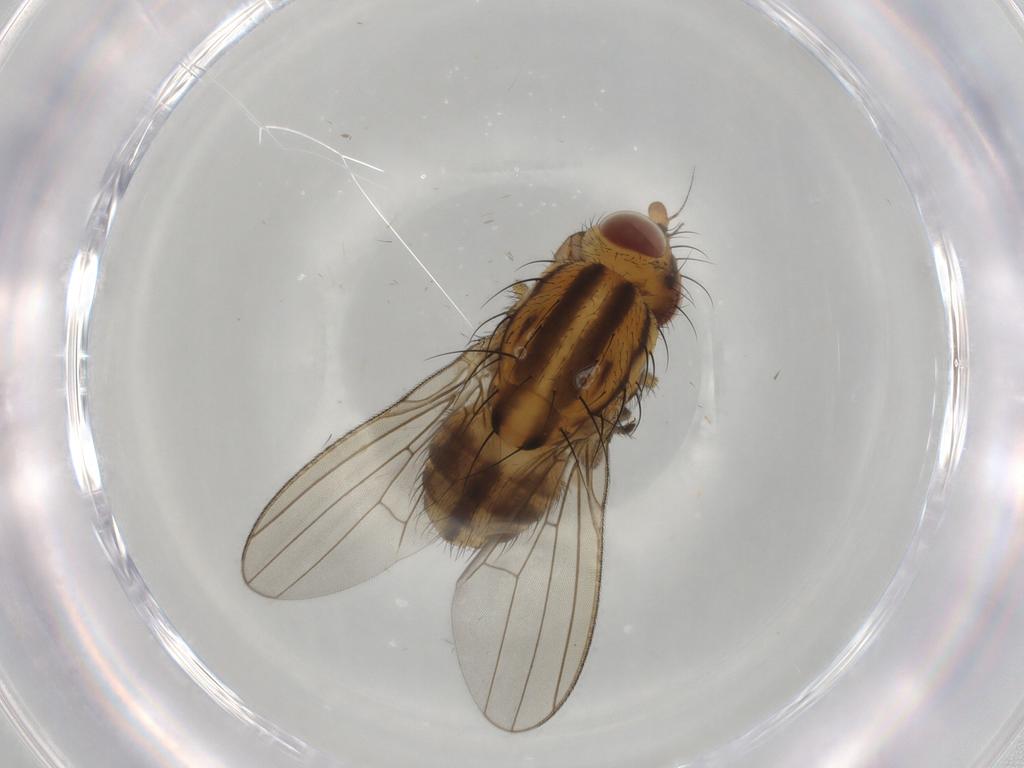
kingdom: Animalia
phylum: Arthropoda
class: Insecta
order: Diptera
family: Lauxaniidae
